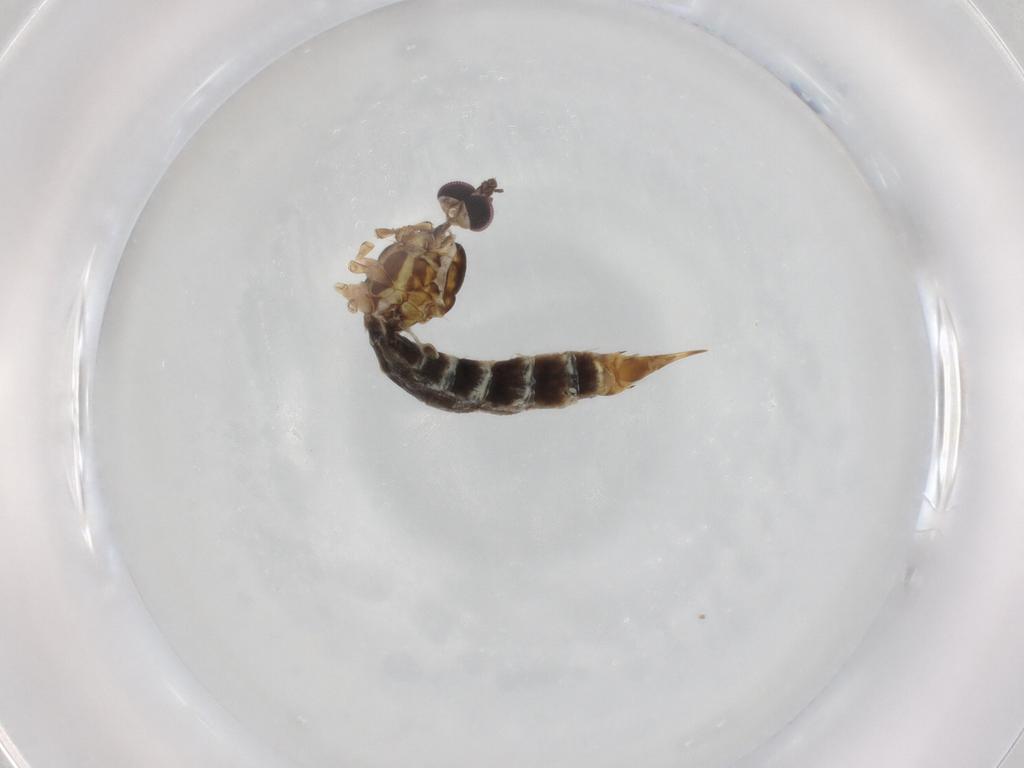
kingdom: Animalia
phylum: Arthropoda
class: Insecta
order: Diptera
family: Limoniidae
